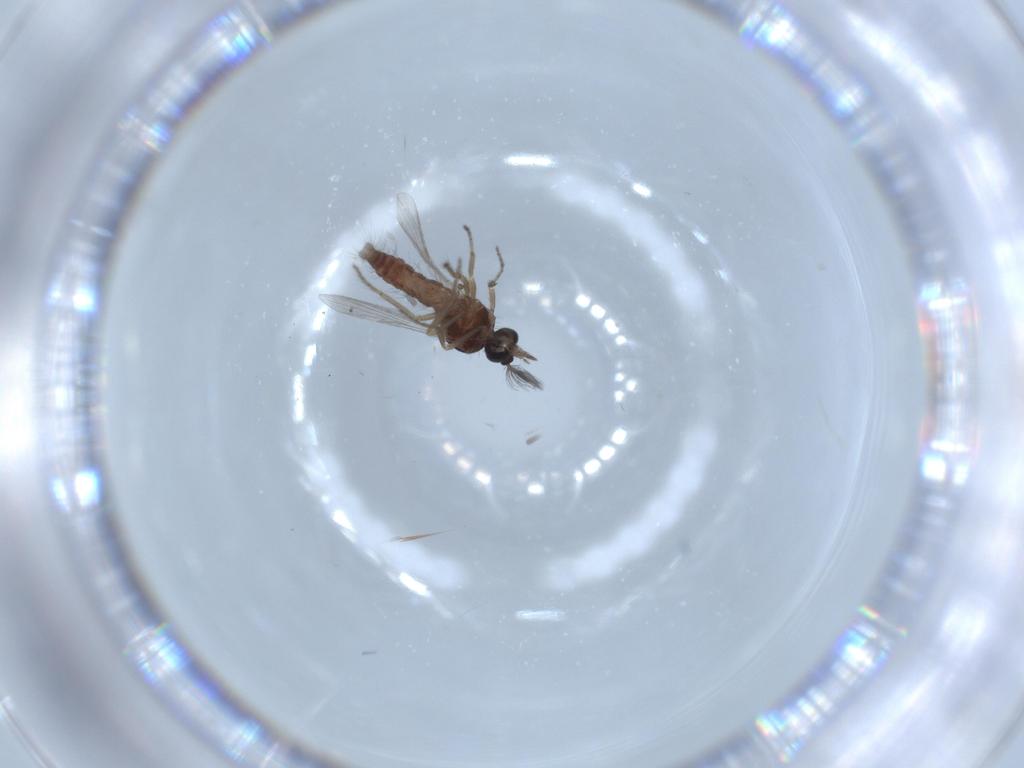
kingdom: Animalia
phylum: Arthropoda
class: Insecta
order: Diptera
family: Ceratopogonidae
